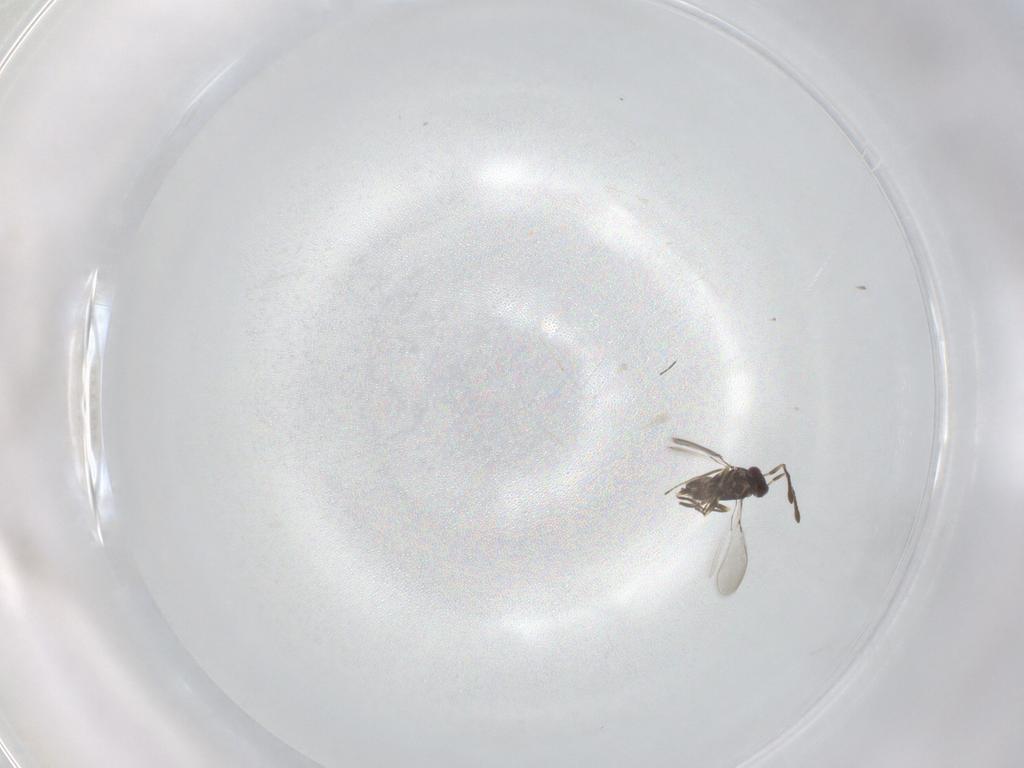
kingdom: Animalia
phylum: Arthropoda
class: Insecta
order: Hymenoptera
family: Mymaridae
